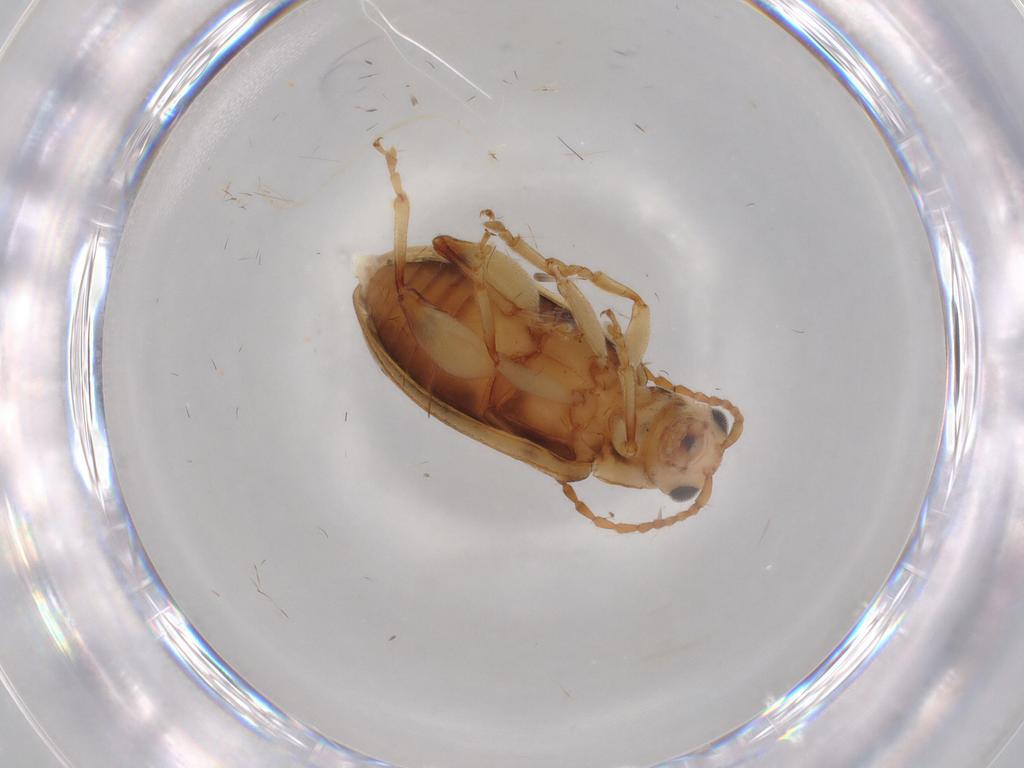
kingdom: Animalia
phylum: Arthropoda
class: Insecta
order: Coleoptera
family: Chrysomelidae
